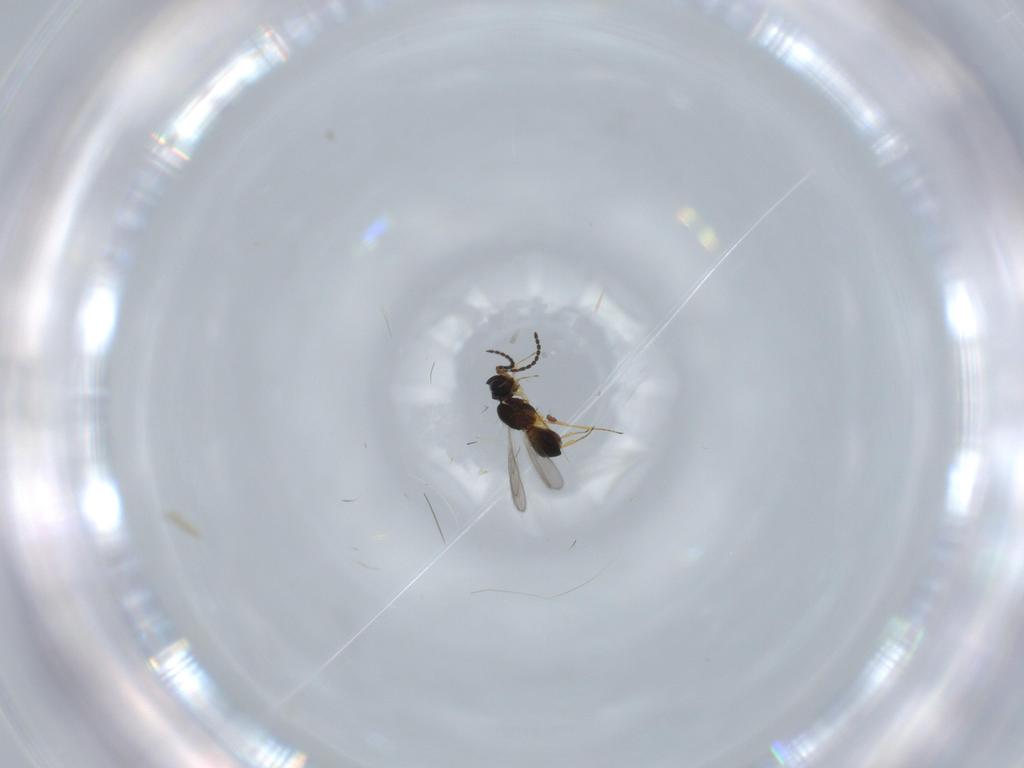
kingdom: Animalia
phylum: Arthropoda
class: Insecta
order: Hymenoptera
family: Scelionidae
